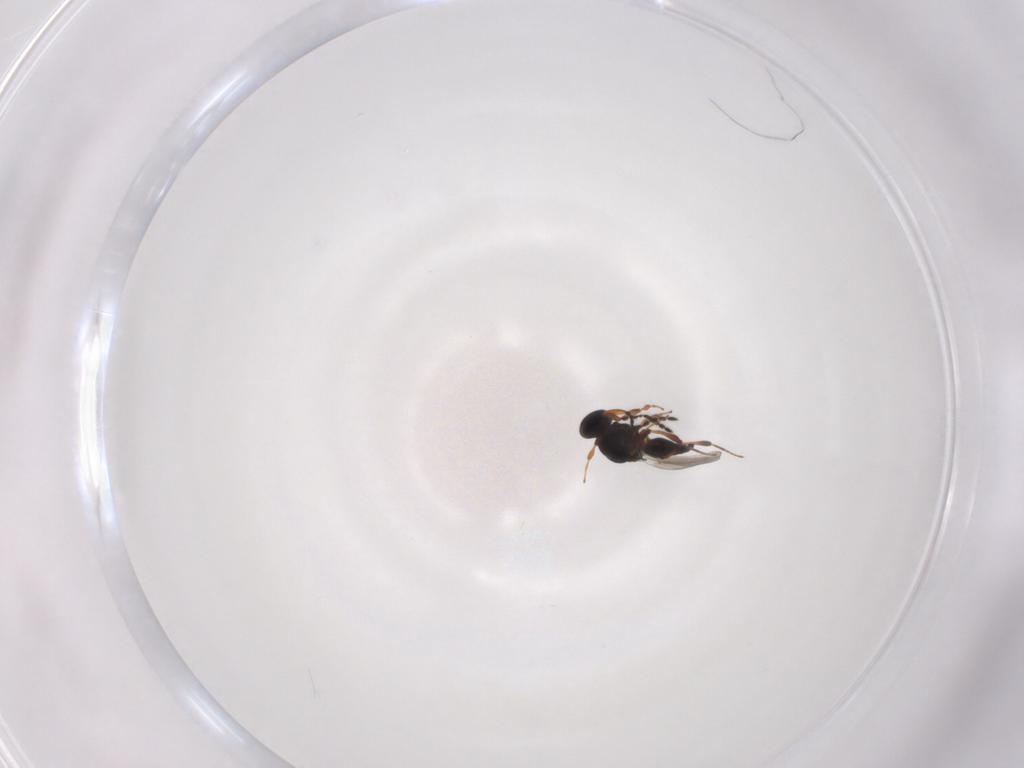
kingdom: Animalia
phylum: Arthropoda
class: Insecta
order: Hymenoptera
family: Platygastridae
